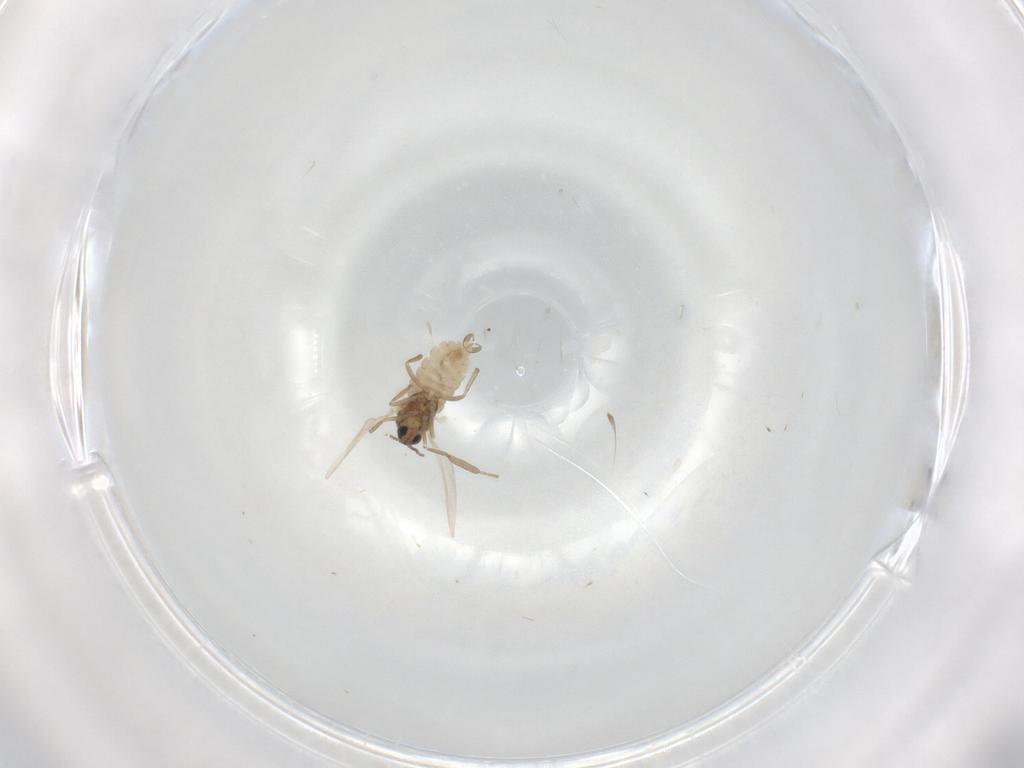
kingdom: Animalia
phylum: Arthropoda
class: Insecta
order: Diptera
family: Cecidomyiidae
